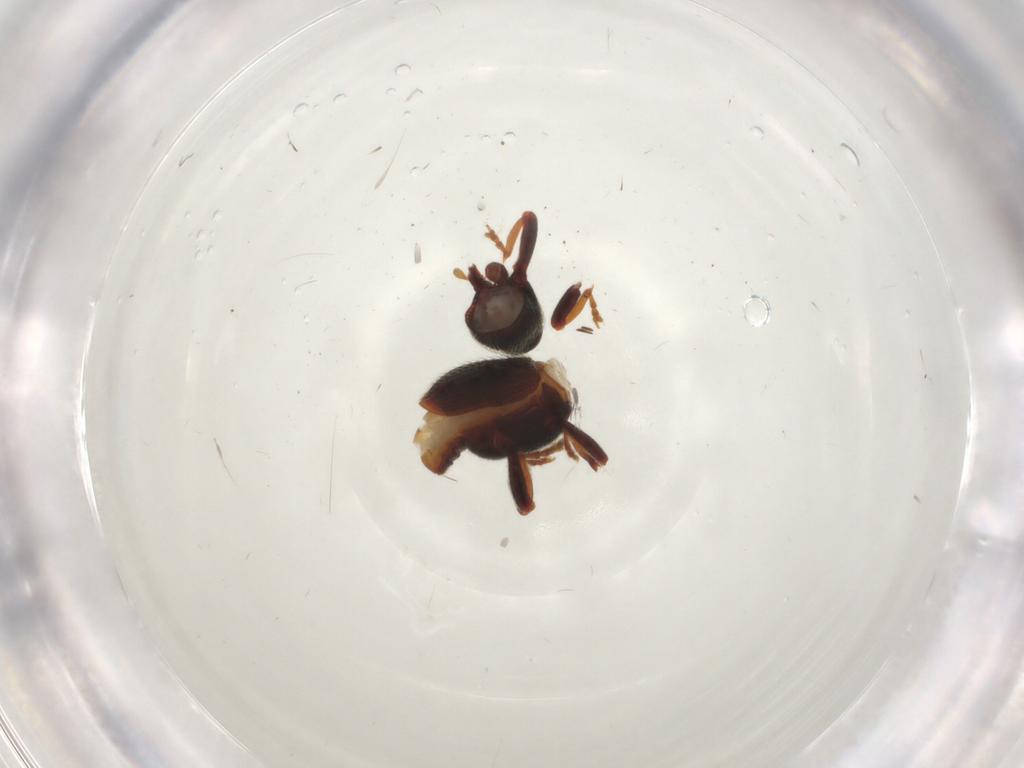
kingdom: Animalia
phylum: Arthropoda
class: Insecta
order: Coleoptera
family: Curculionidae
